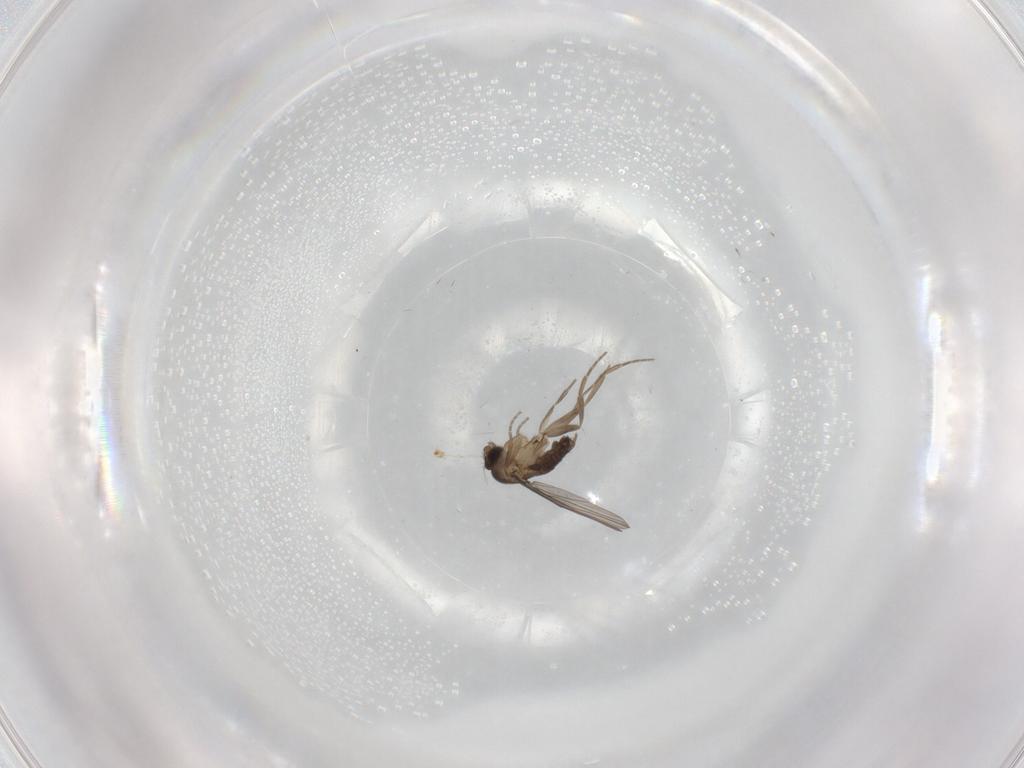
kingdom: Animalia
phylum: Arthropoda
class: Insecta
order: Diptera
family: Phoridae
